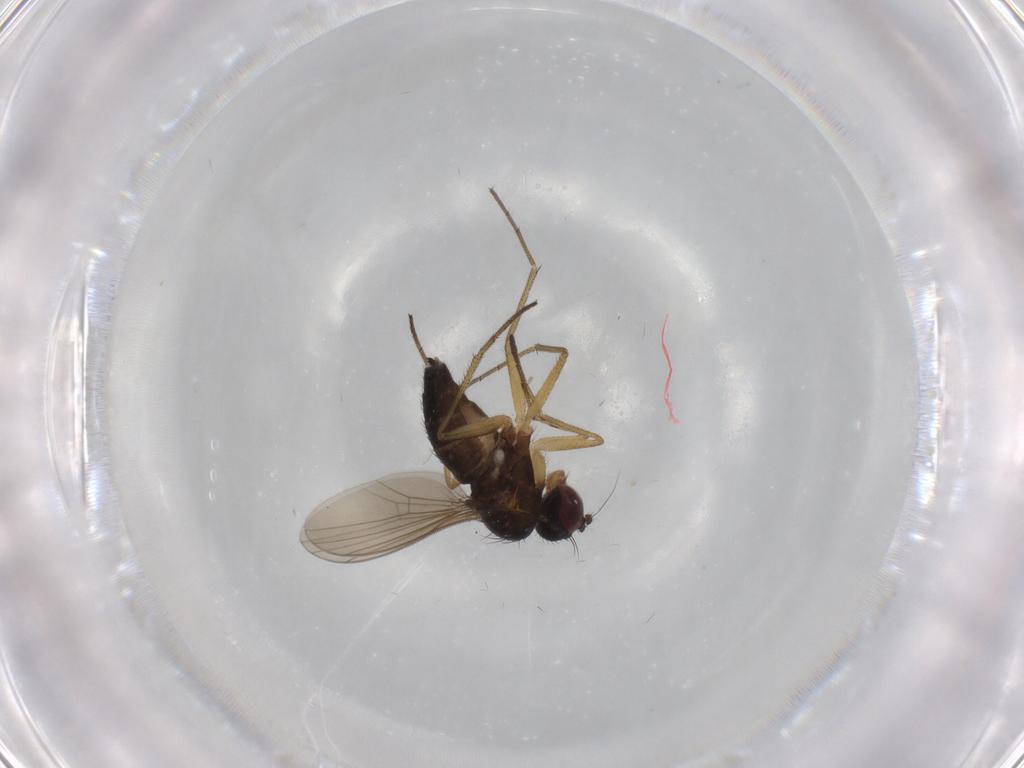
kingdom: Animalia
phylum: Arthropoda
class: Insecta
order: Diptera
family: Dolichopodidae
